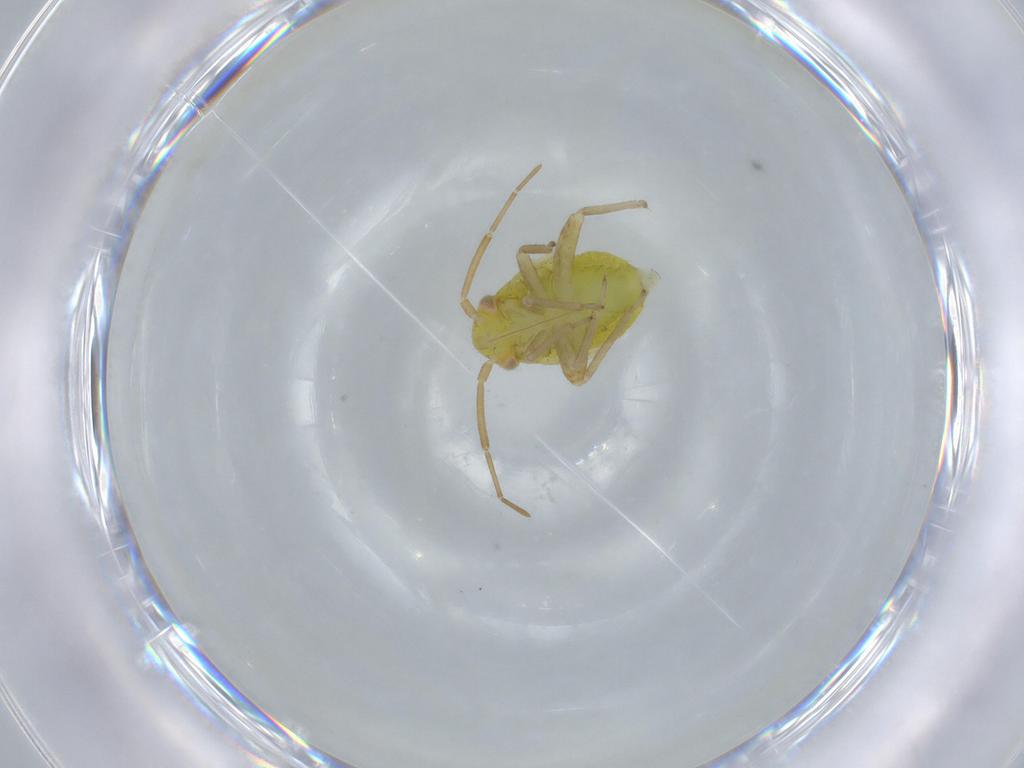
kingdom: Animalia
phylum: Arthropoda
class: Insecta
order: Hemiptera
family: Miridae
